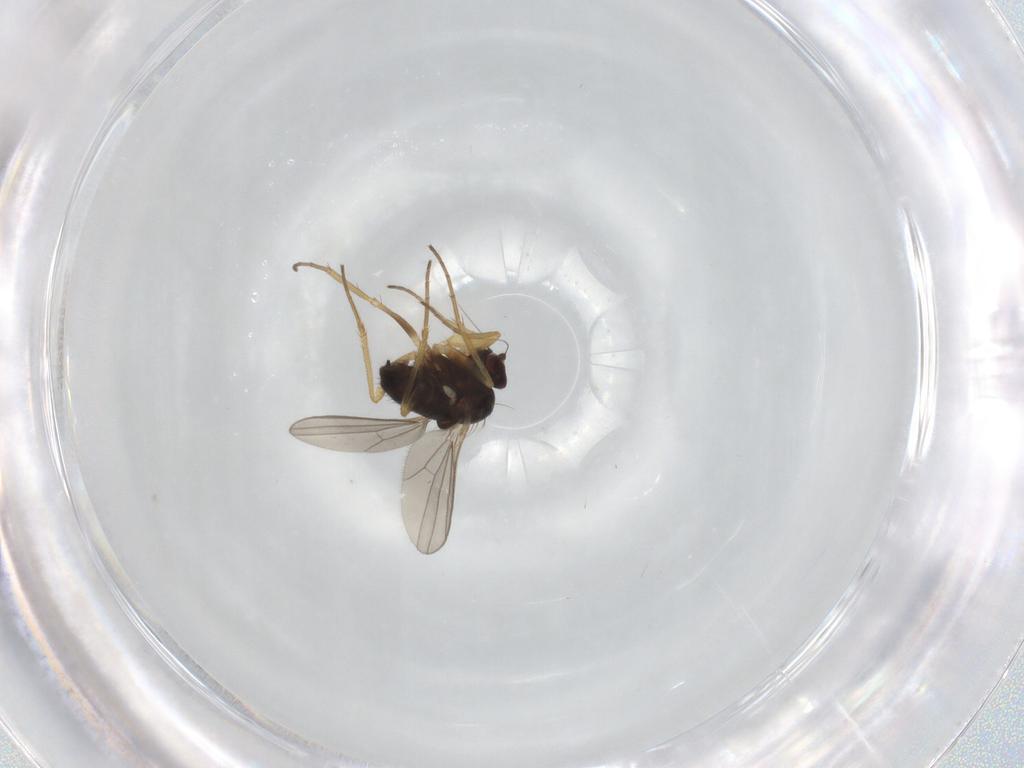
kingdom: Animalia
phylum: Arthropoda
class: Insecta
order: Diptera
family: Dolichopodidae
